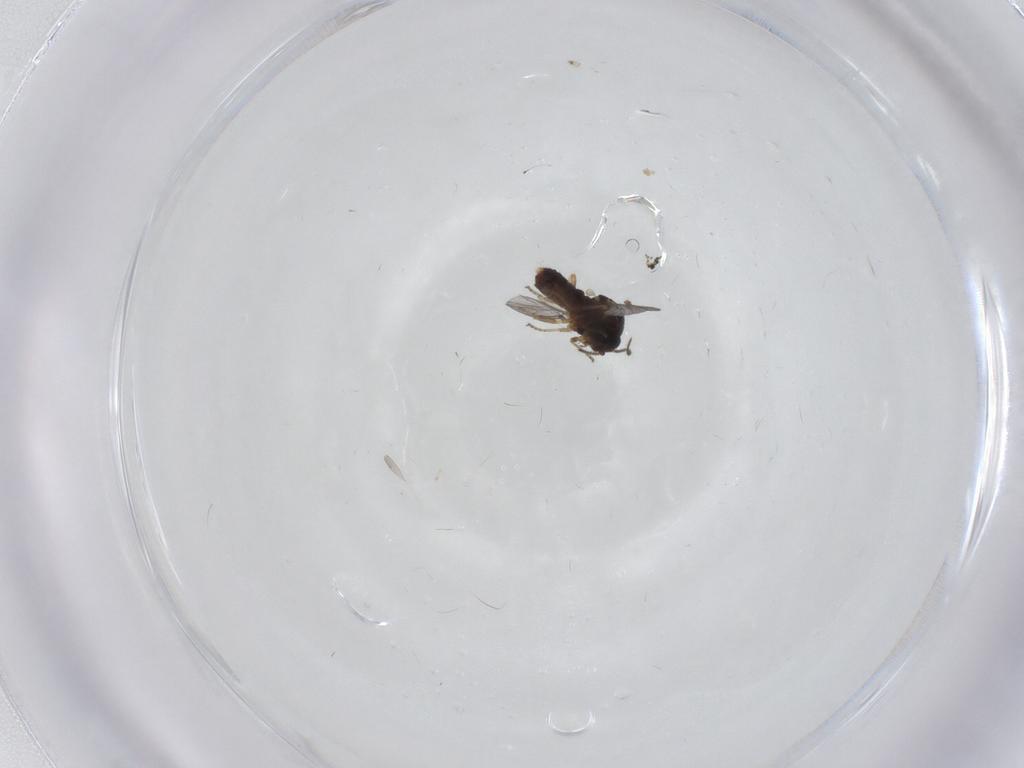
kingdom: Animalia
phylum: Arthropoda
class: Insecta
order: Diptera
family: Ceratopogonidae
